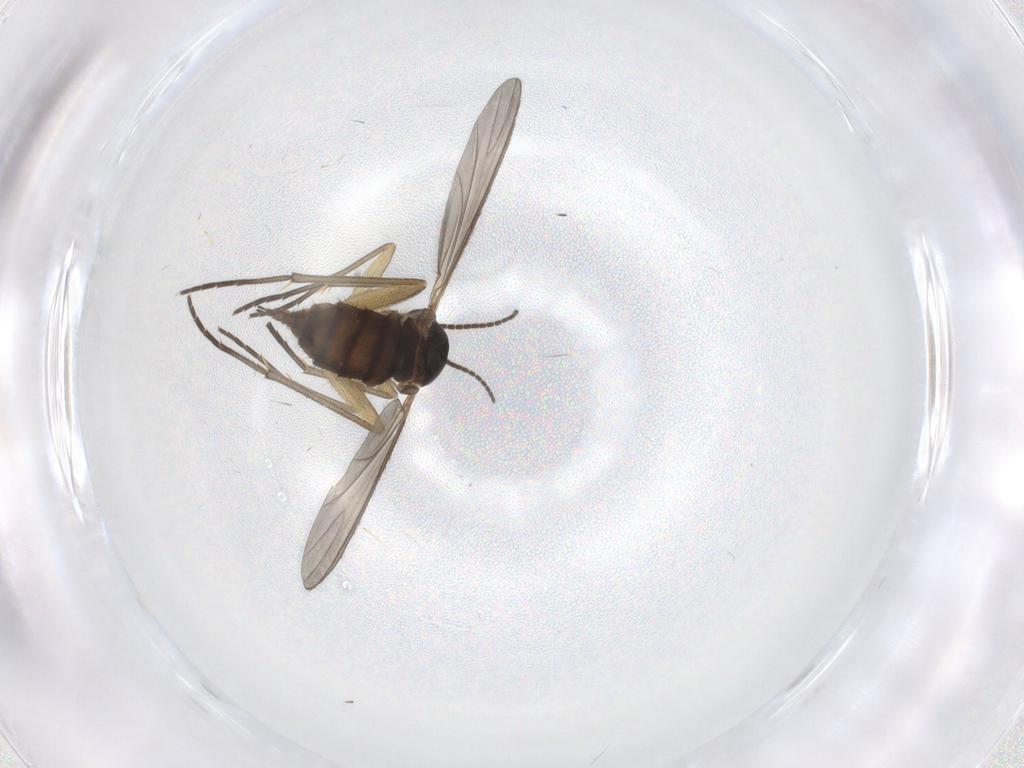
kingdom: Animalia
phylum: Arthropoda
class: Insecta
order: Diptera
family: Sciaridae
